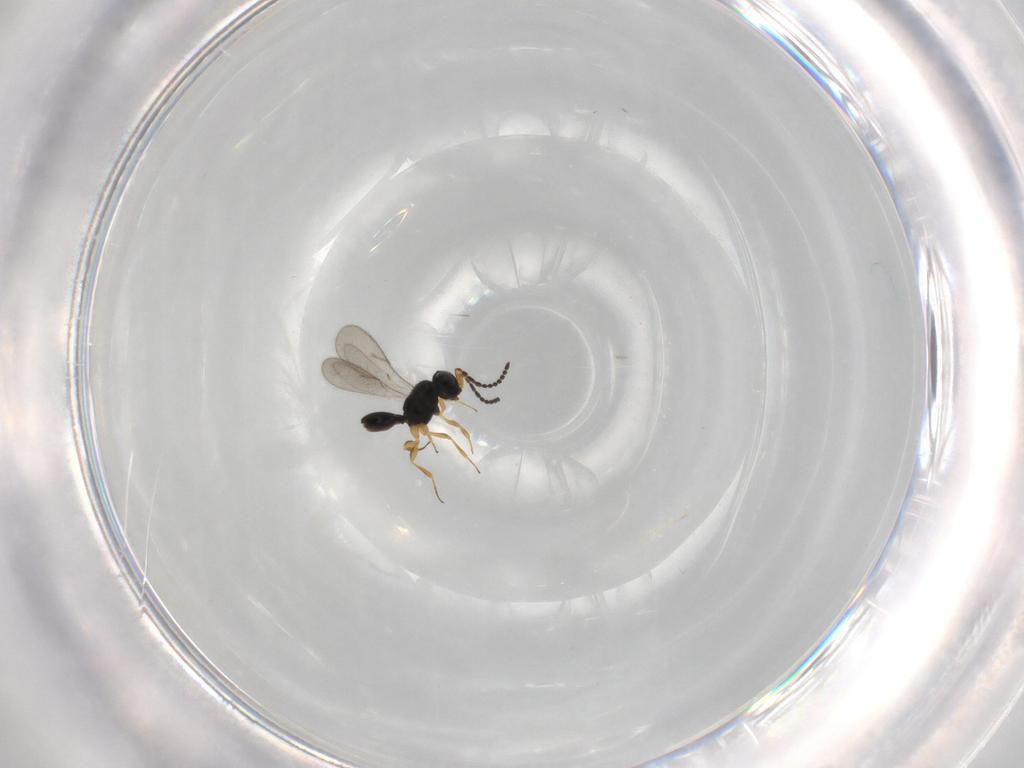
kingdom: Animalia
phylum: Arthropoda
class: Insecta
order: Hymenoptera
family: Scelionidae
